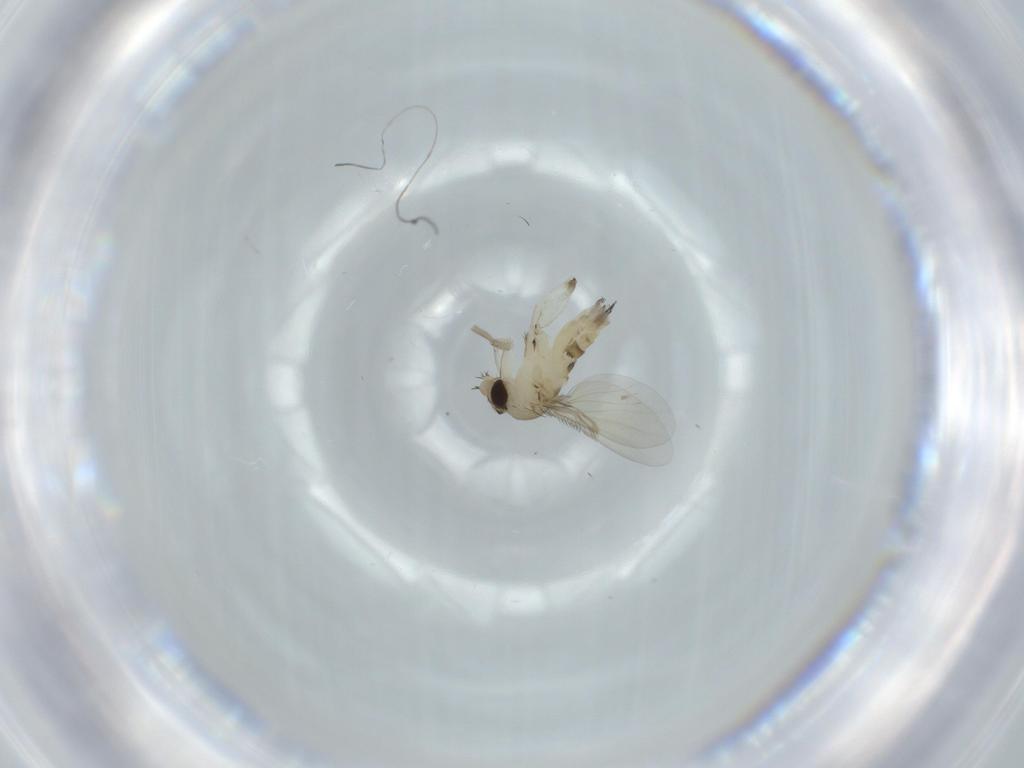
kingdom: Animalia
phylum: Arthropoda
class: Insecta
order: Diptera
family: Phoridae
